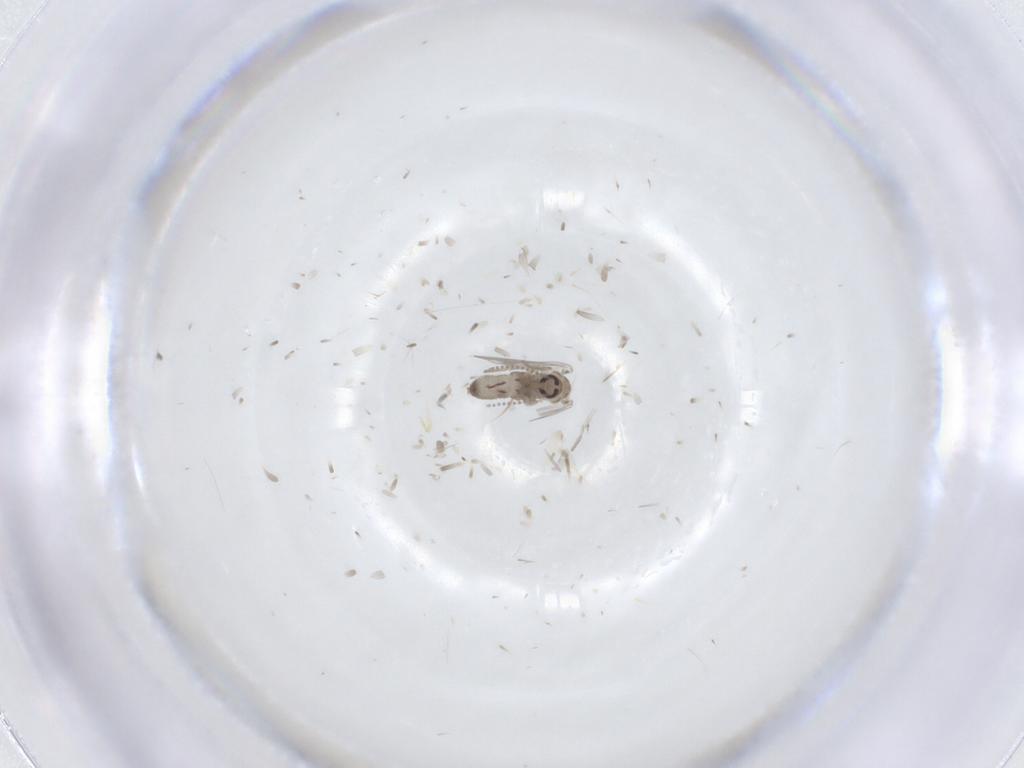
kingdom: Animalia
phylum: Arthropoda
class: Insecta
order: Diptera
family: Psychodidae
